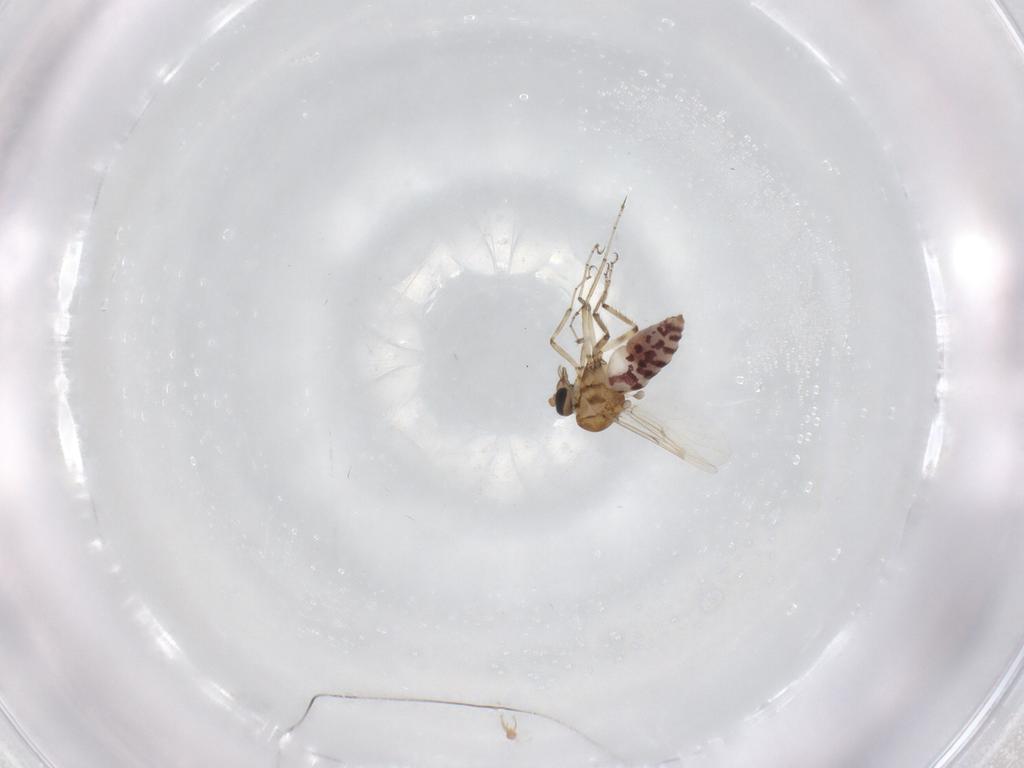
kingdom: Animalia
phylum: Arthropoda
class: Insecta
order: Diptera
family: Ceratopogonidae
